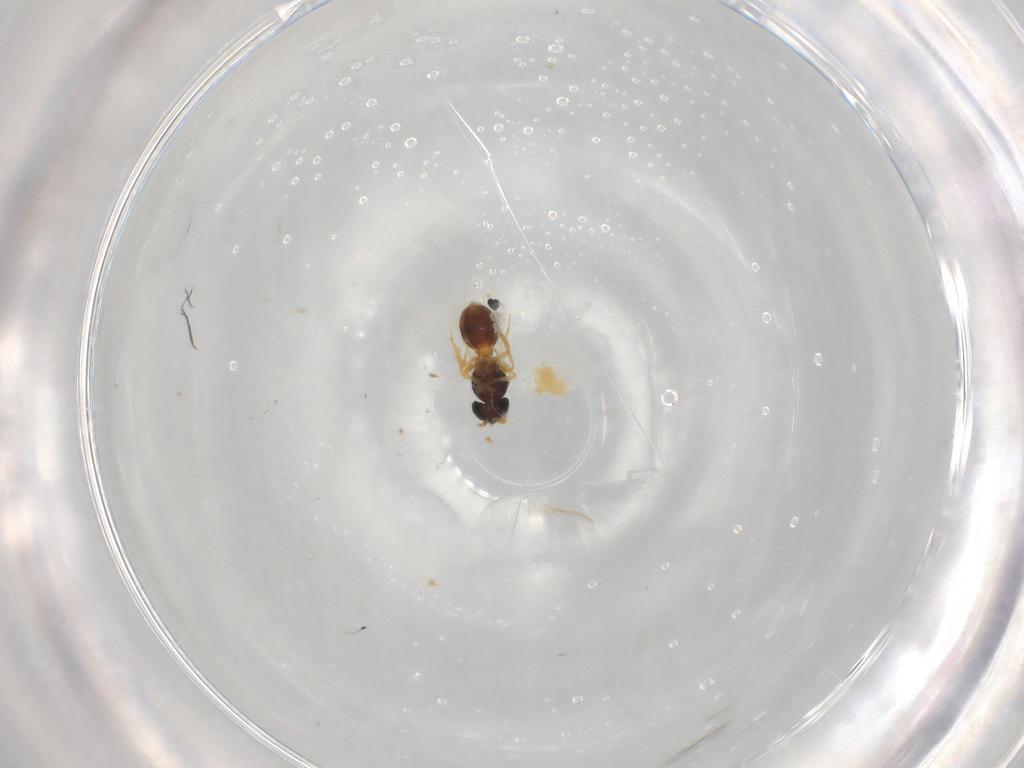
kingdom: Animalia
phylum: Arthropoda
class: Insecta
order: Hymenoptera
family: Scelionidae
